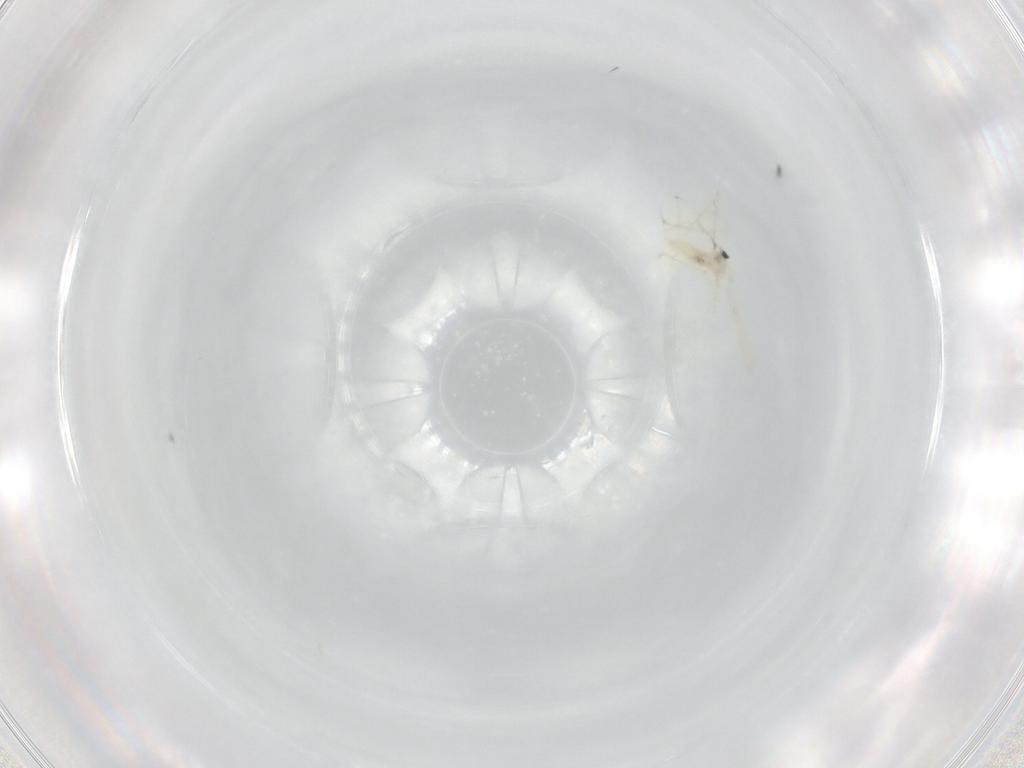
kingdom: Animalia
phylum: Arthropoda
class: Insecta
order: Diptera
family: Cecidomyiidae
